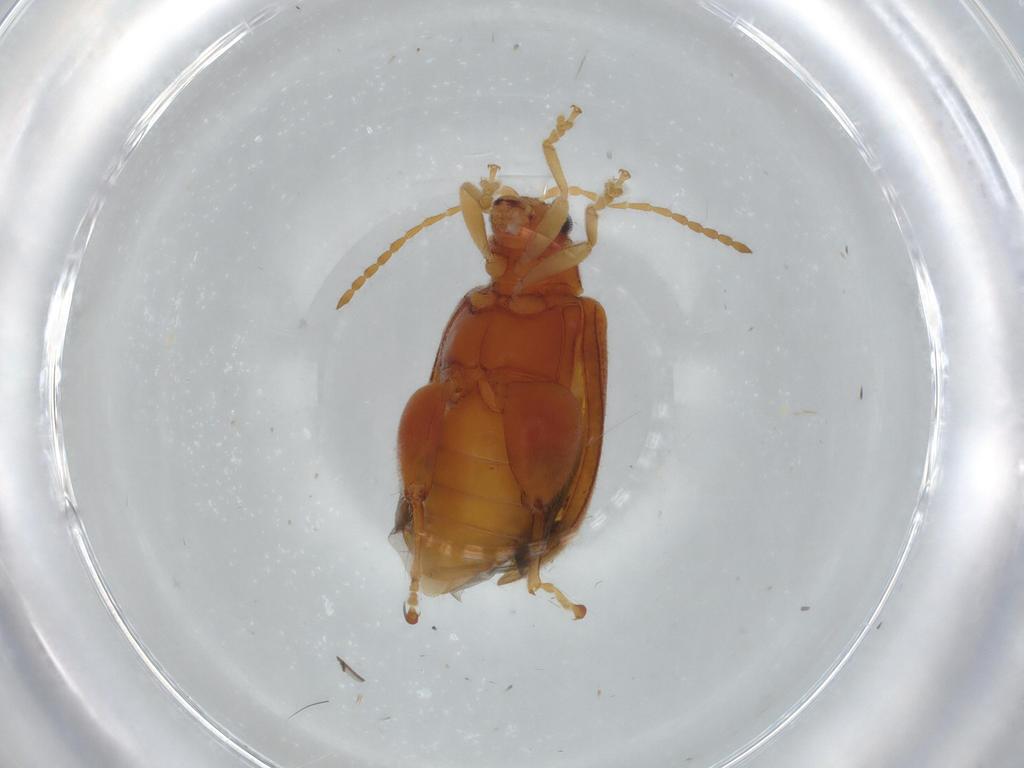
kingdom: Animalia
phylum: Arthropoda
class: Insecta
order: Coleoptera
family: Chrysomelidae
